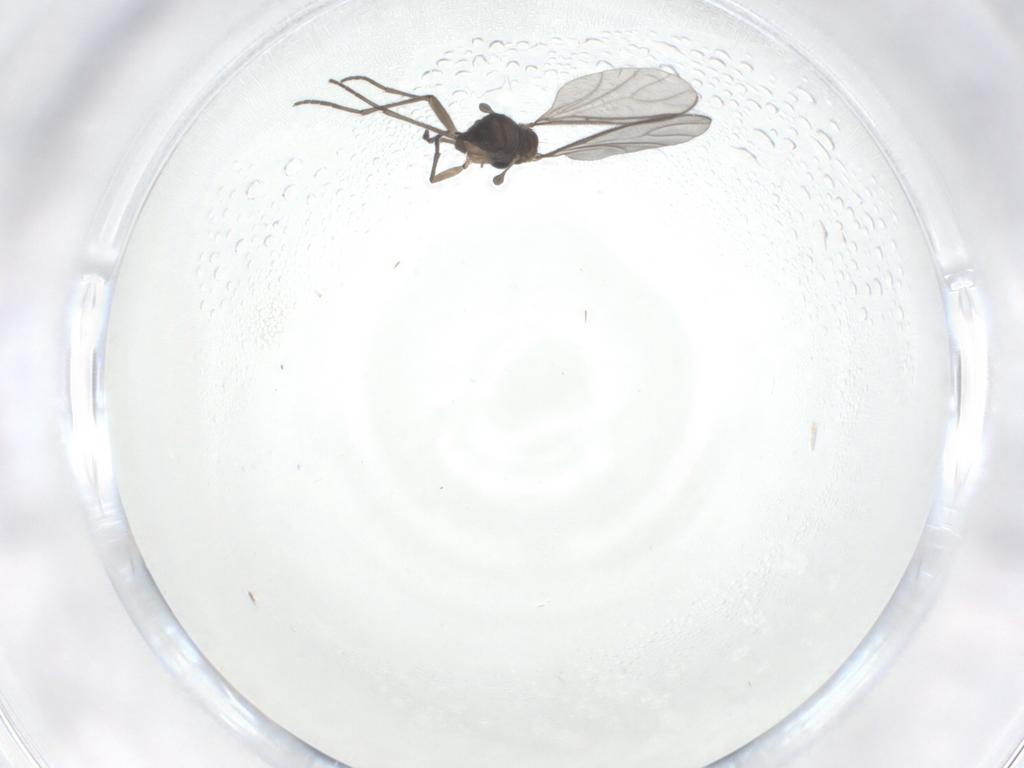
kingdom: Animalia
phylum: Arthropoda
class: Insecta
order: Diptera
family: Sciaridae
